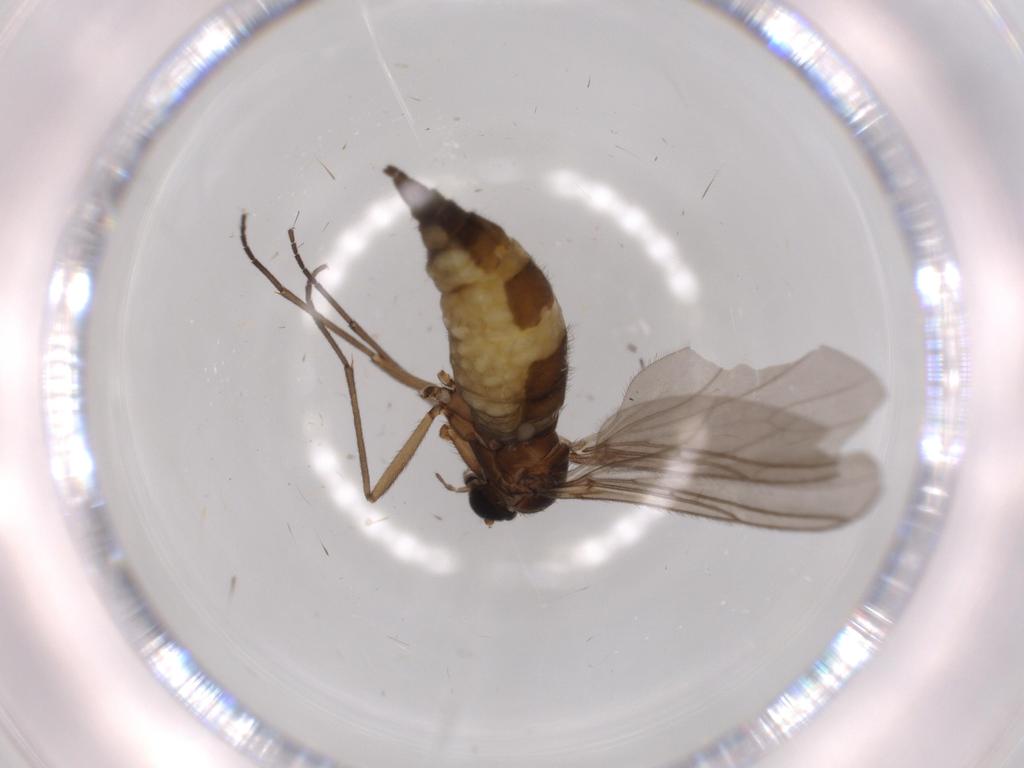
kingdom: Animalia
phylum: Arthropoda
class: Insecta
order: Diptera
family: Sciaridae
